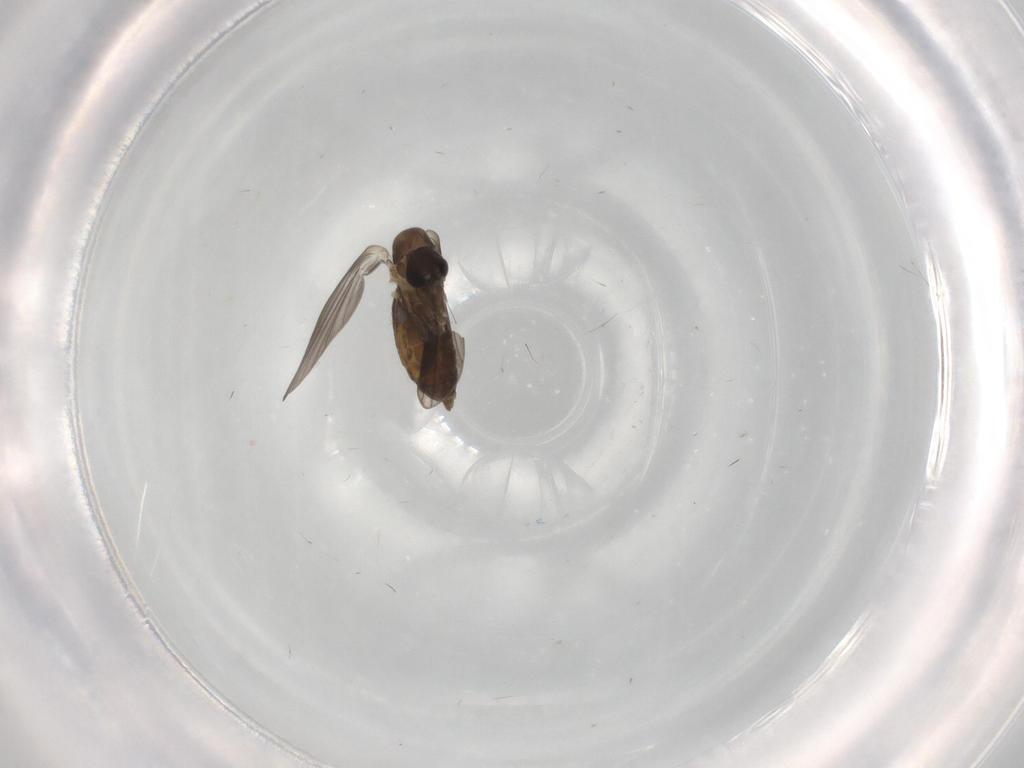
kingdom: Animalia
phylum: Arthropoda
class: Insecta
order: Diptera
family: Psychodidae
